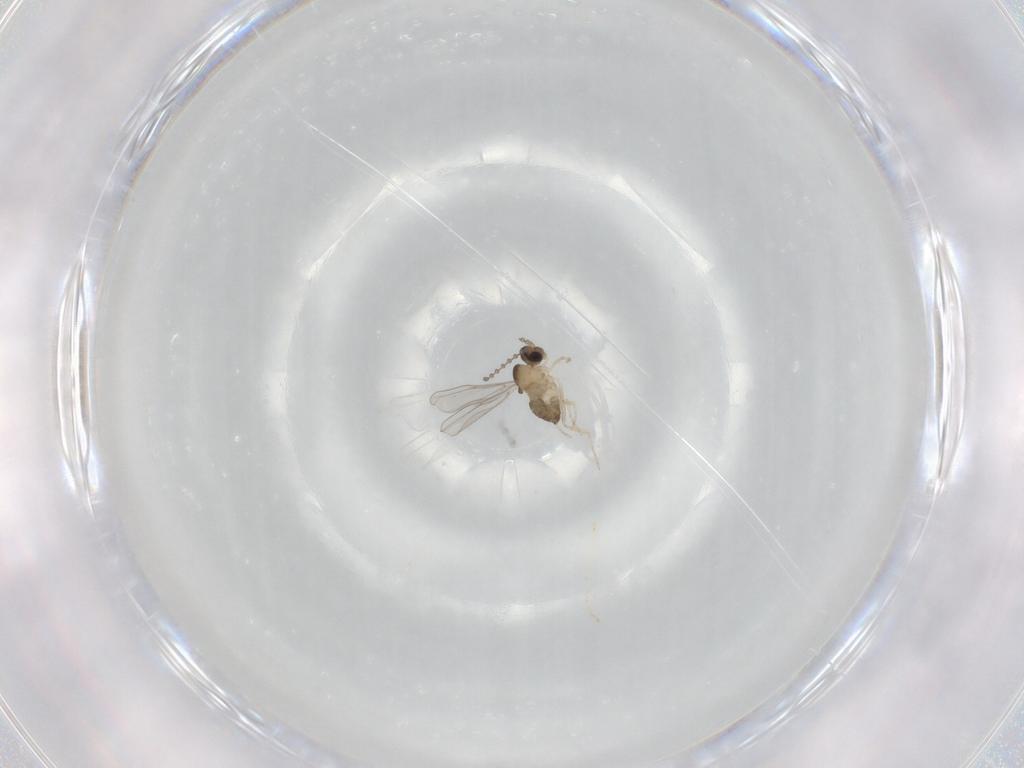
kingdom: Animalia
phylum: Arthropoda
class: Insecta
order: Diptera
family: Cecidomyiidae
